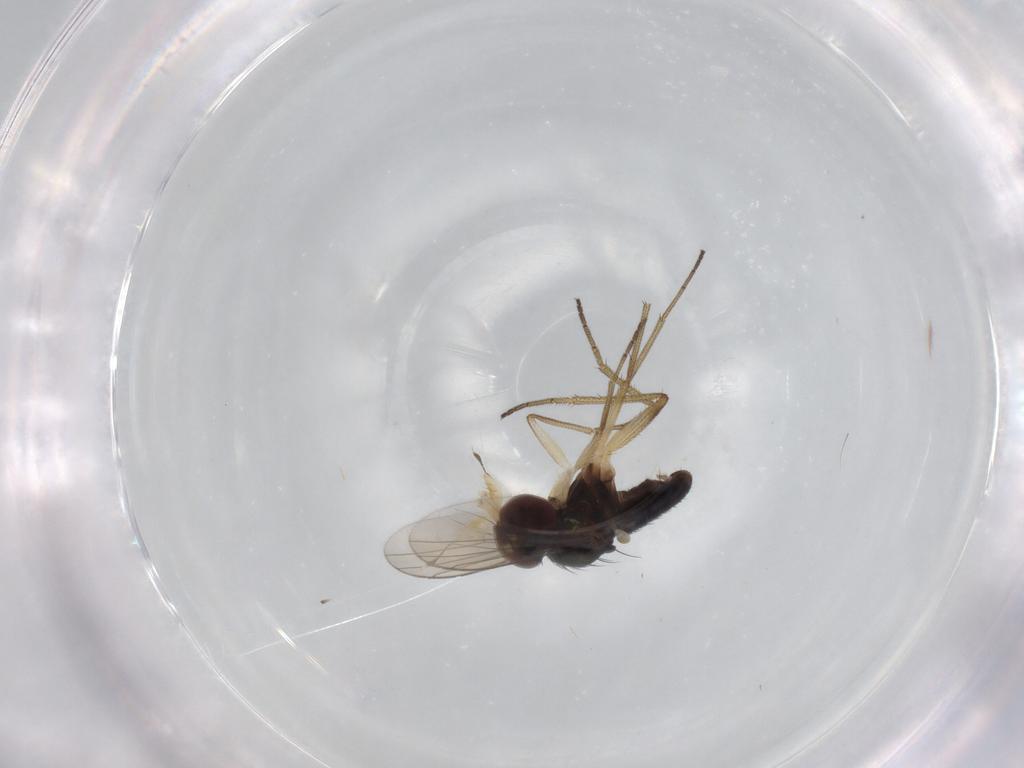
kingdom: Animalia
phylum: Arthropoda
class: Insecta
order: Diptera
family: Dolichopodidae
